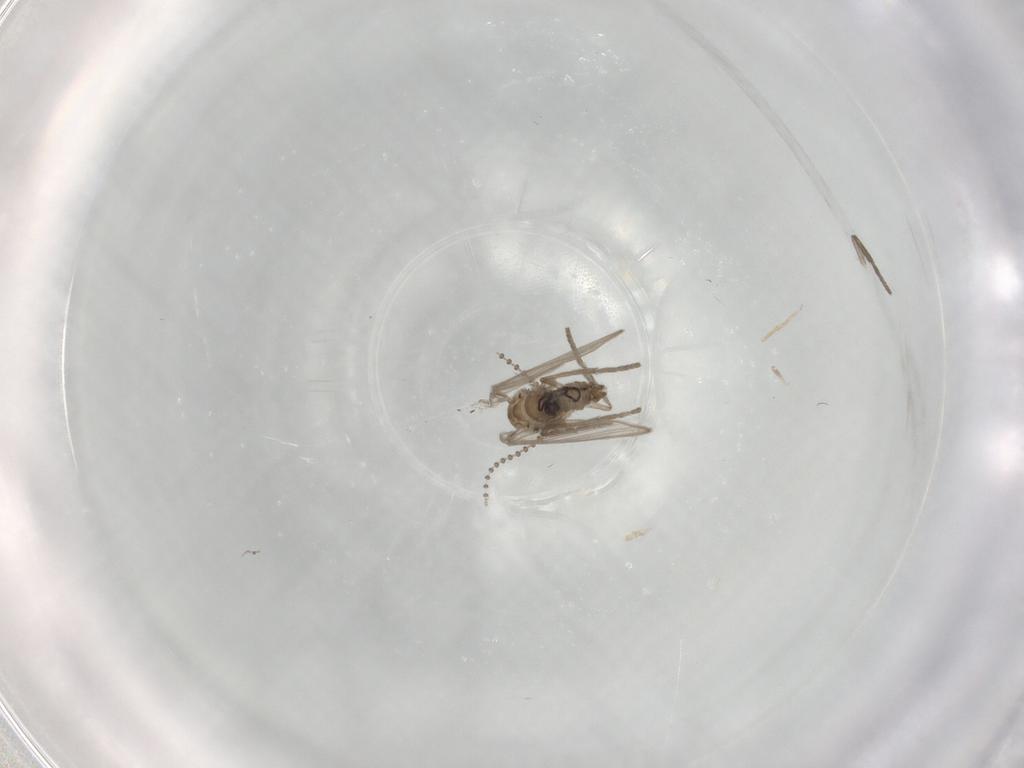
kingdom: Animalia
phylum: Arthropoda
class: Insecta
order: Diptera
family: Psychodidae
